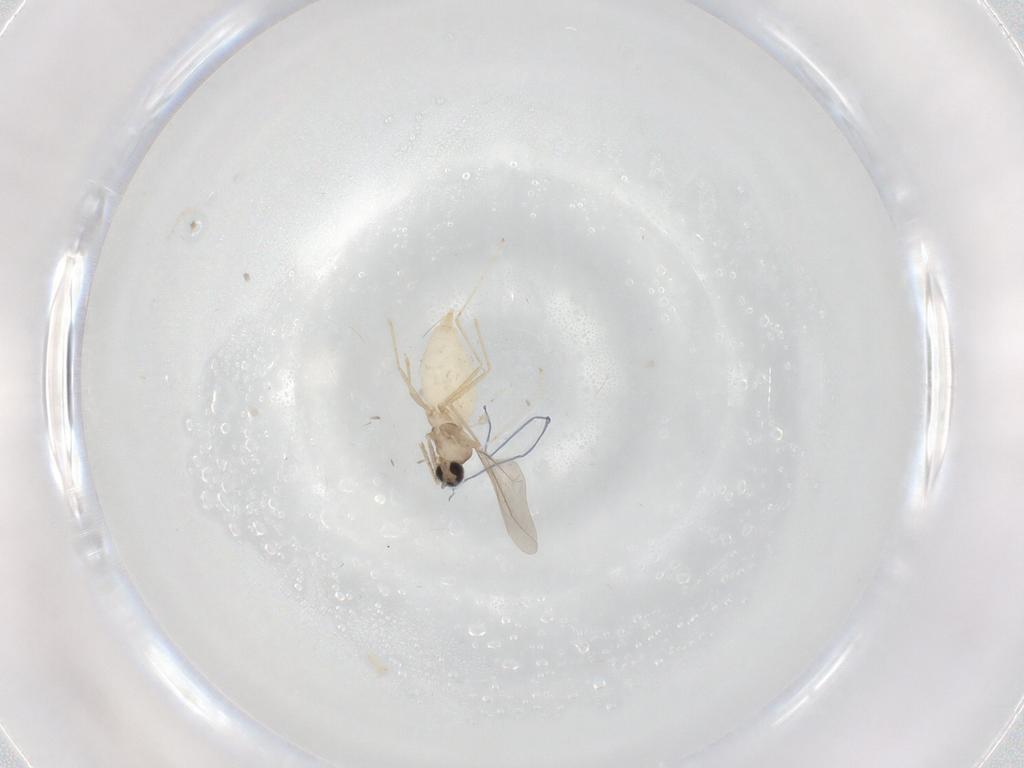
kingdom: Animalia
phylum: Arthropoda
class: Insecta
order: Diptera
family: Cecidomyiidae
